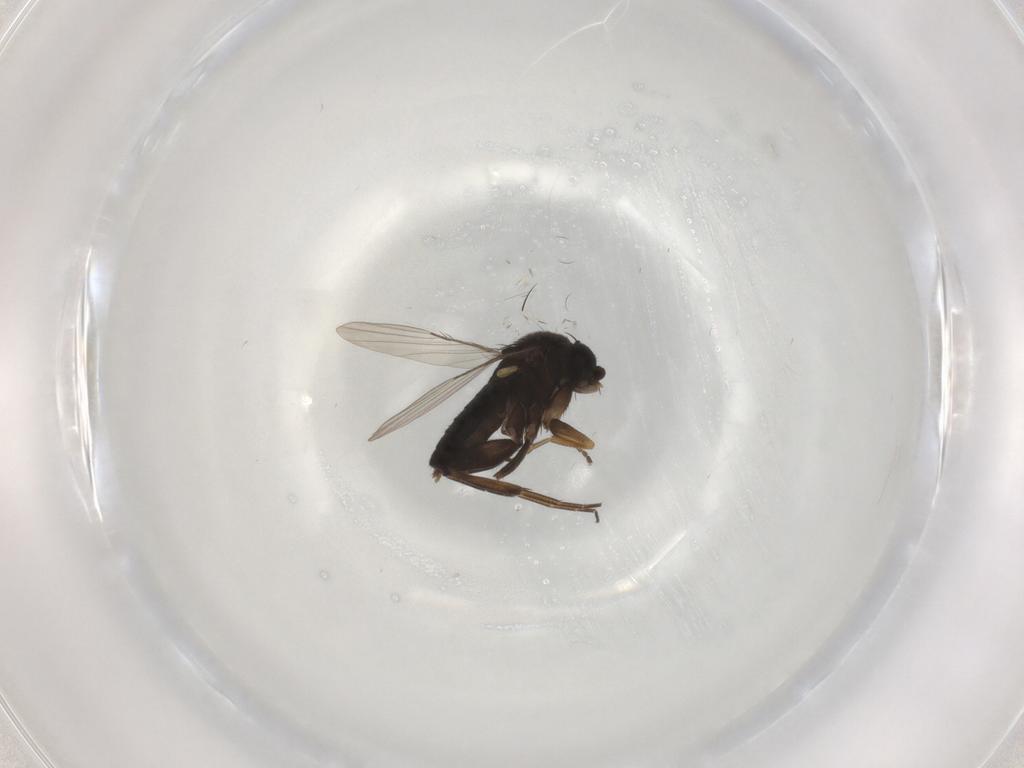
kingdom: Animalia
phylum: Arthropoda
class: Insecta
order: Diptera
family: Phoridae
